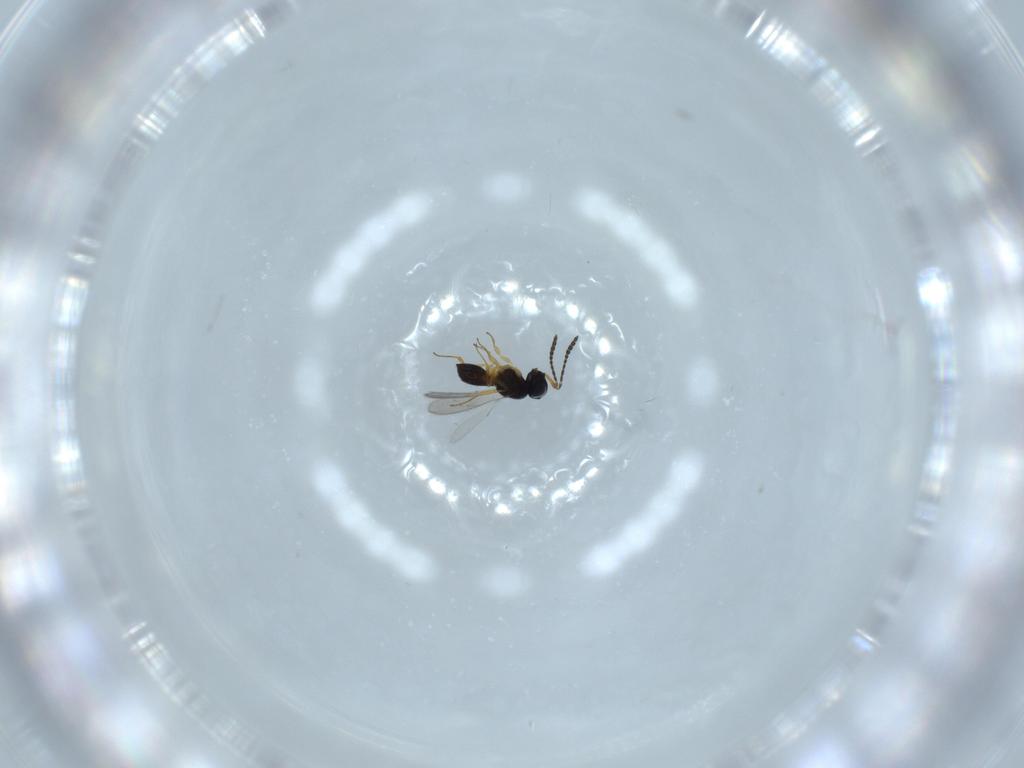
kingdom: Animalia
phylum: Arthropoda
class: Insecta
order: Hymenoptera
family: Scelionidae
